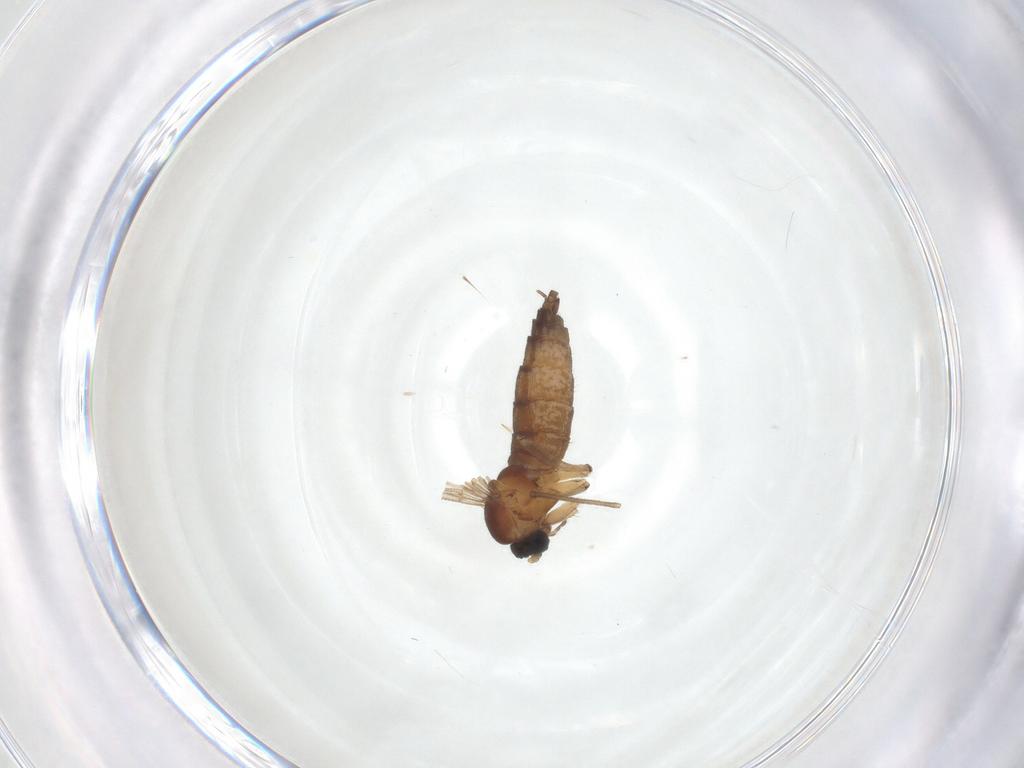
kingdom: Animalia
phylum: Arthropoda
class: Insecta
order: Diptera
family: Sciaridae
